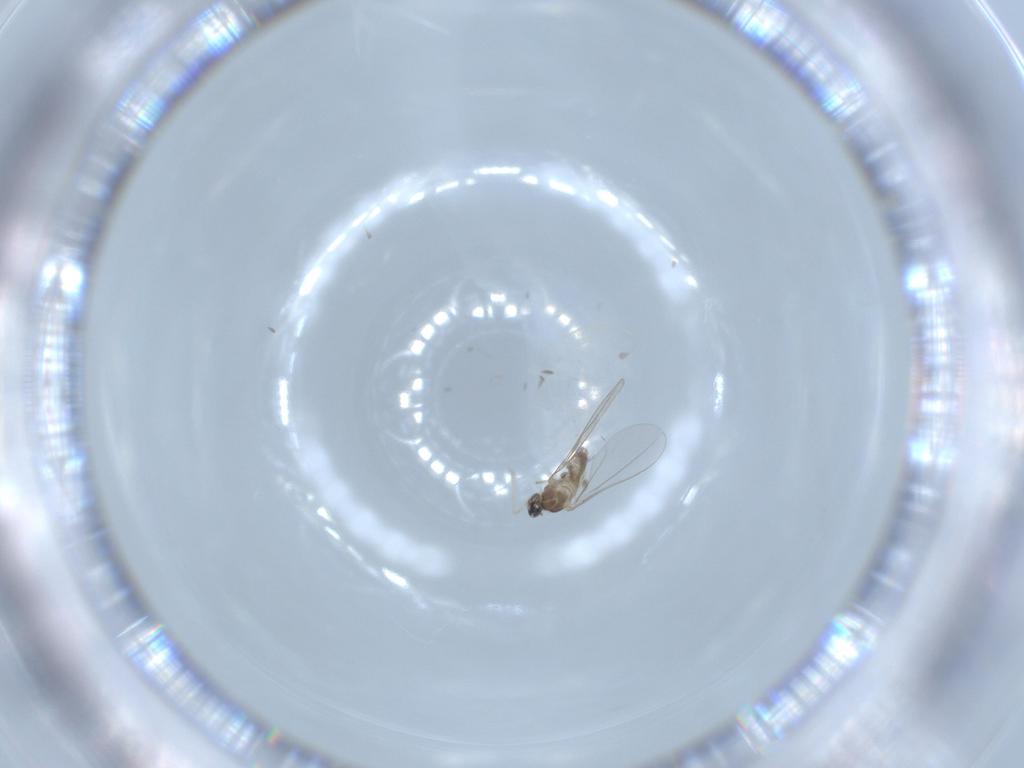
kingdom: Animalia
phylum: Arthropoda
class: Insecta
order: Diptera
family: Cecidomyiidae
